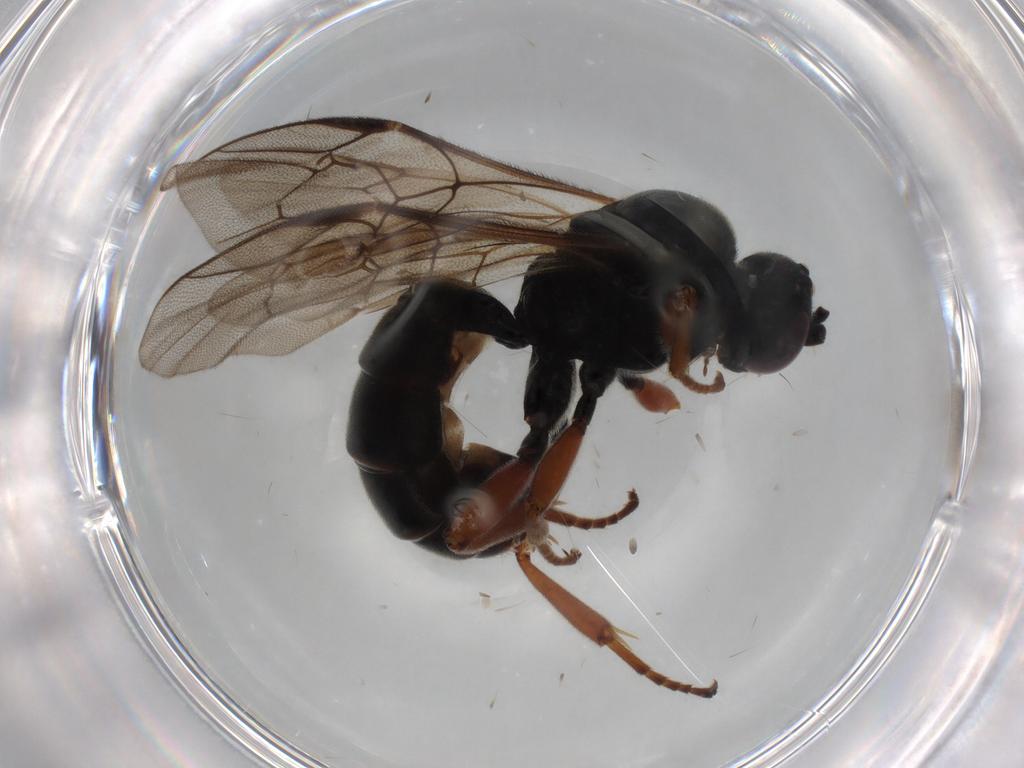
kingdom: Animalia
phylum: Arthropoda
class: Insecta
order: Hymenoptera
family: Ichneumonidae
